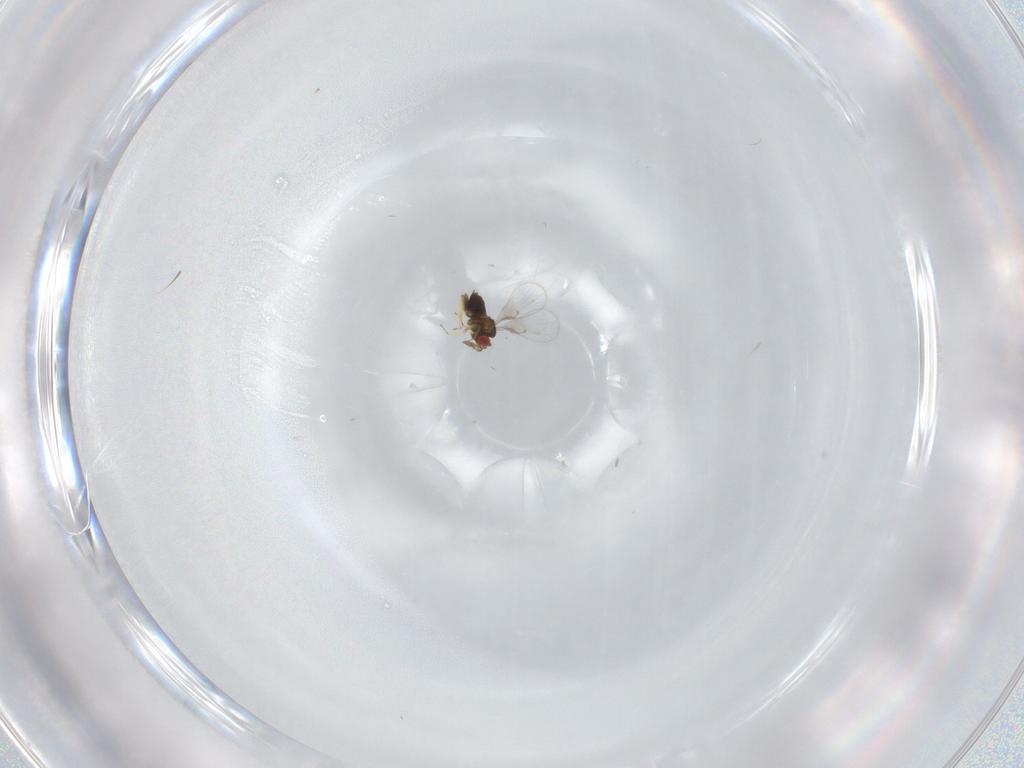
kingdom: Animalia
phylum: Arthropoda
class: Insecta
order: Hymenoptera
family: Trichogrammatidae
